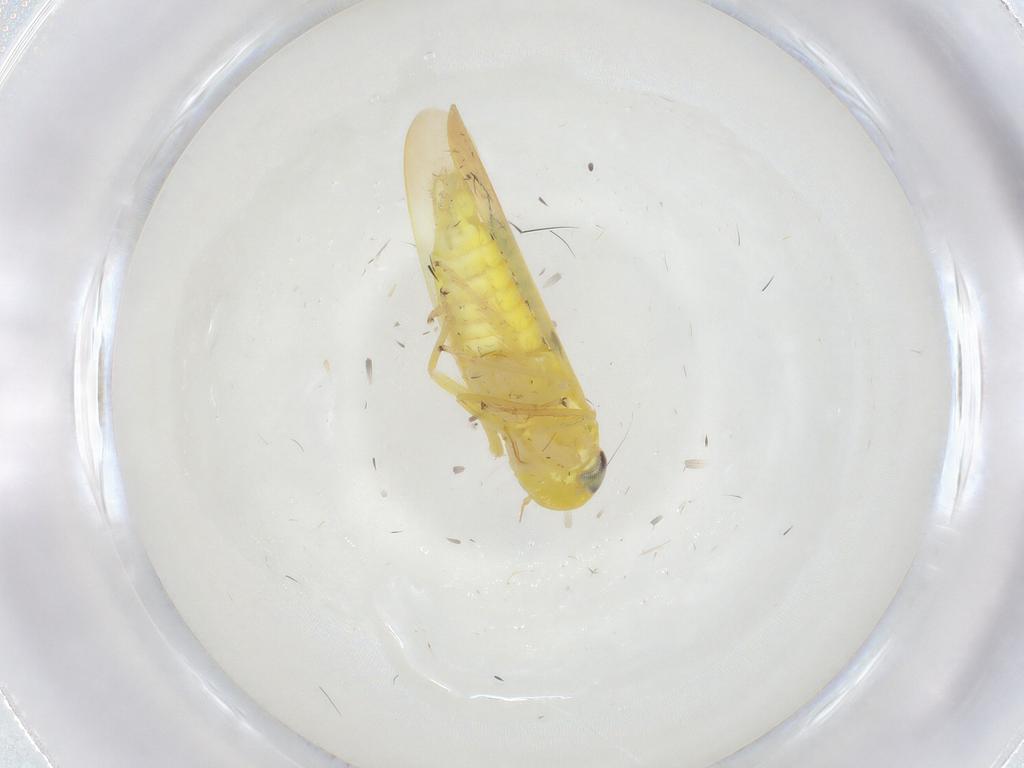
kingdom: Animalia
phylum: Arthropoda
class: Insecta
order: Hemiptera
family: Cicadellidae
